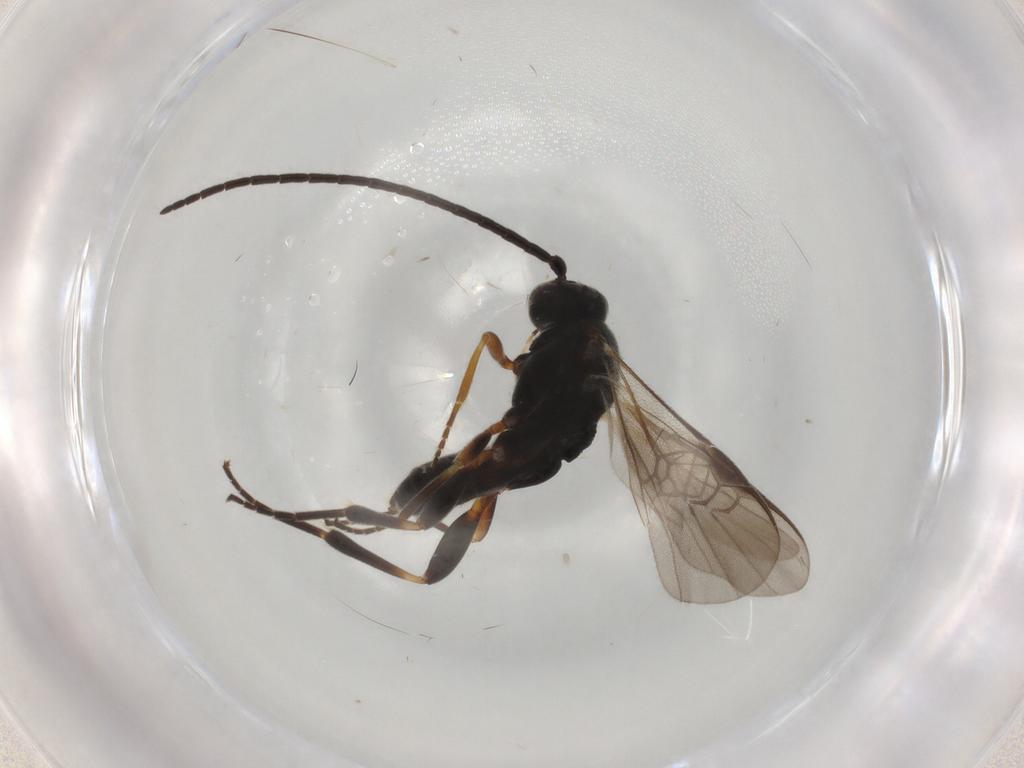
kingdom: Animalia
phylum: Arthropoda
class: Insecta
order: Hymenoptera
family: Braconidae
